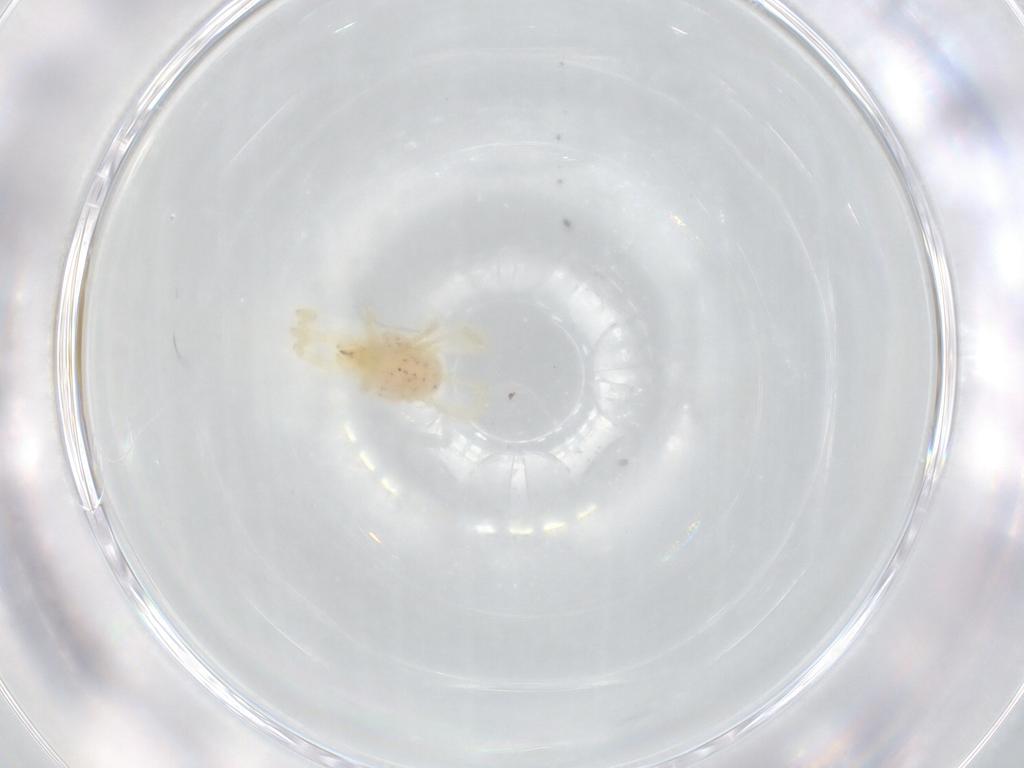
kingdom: Animalia
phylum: Arthropoda
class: Arachnida
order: Trombidiformes
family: Erythraeidae
